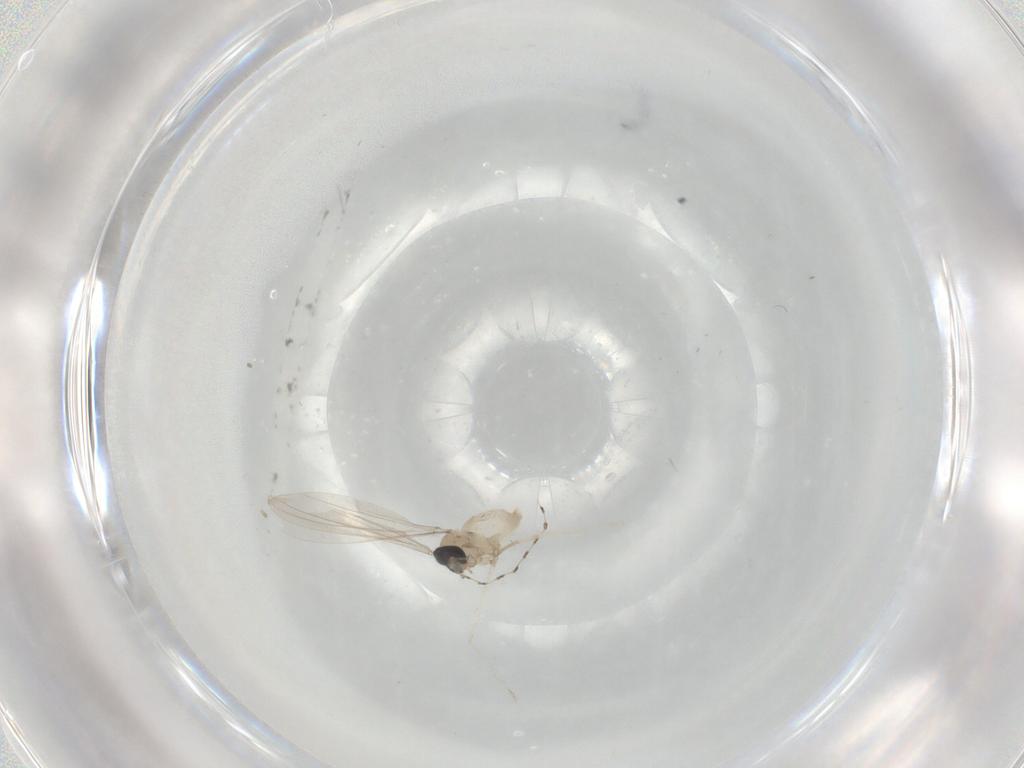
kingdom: Animalia
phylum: Arthropoda
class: Insecta
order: Diptera
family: Cecidomyiidae
